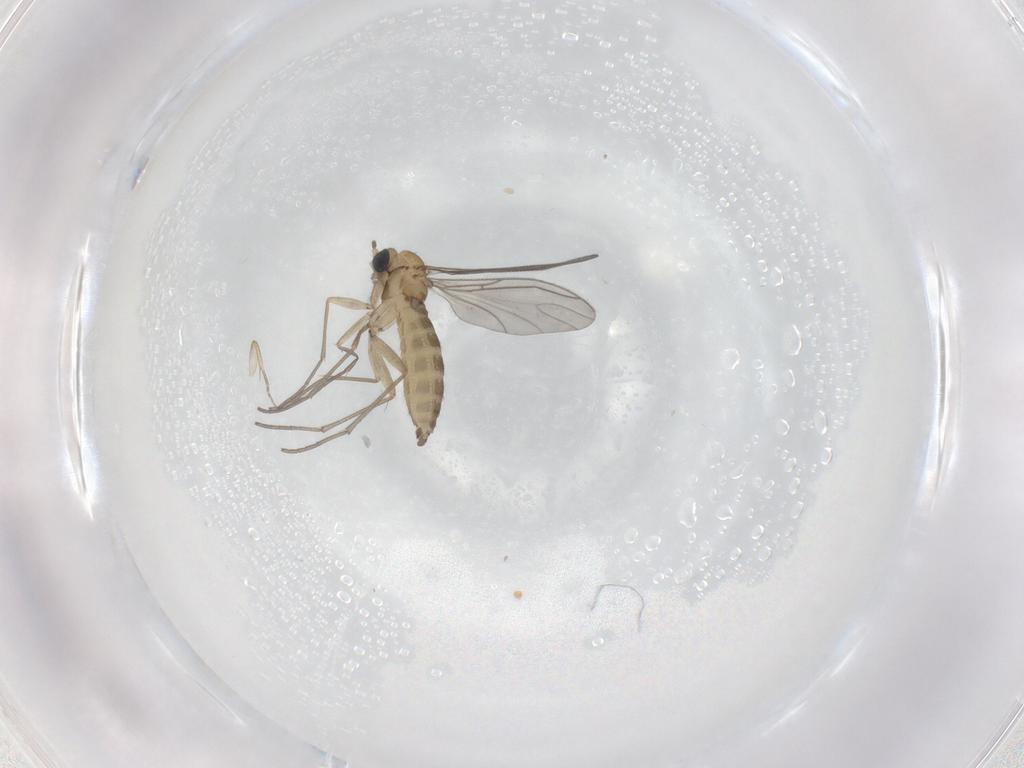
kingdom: Animalia
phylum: Arthropoda
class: Insecta
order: Diptera
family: Sciaridae
